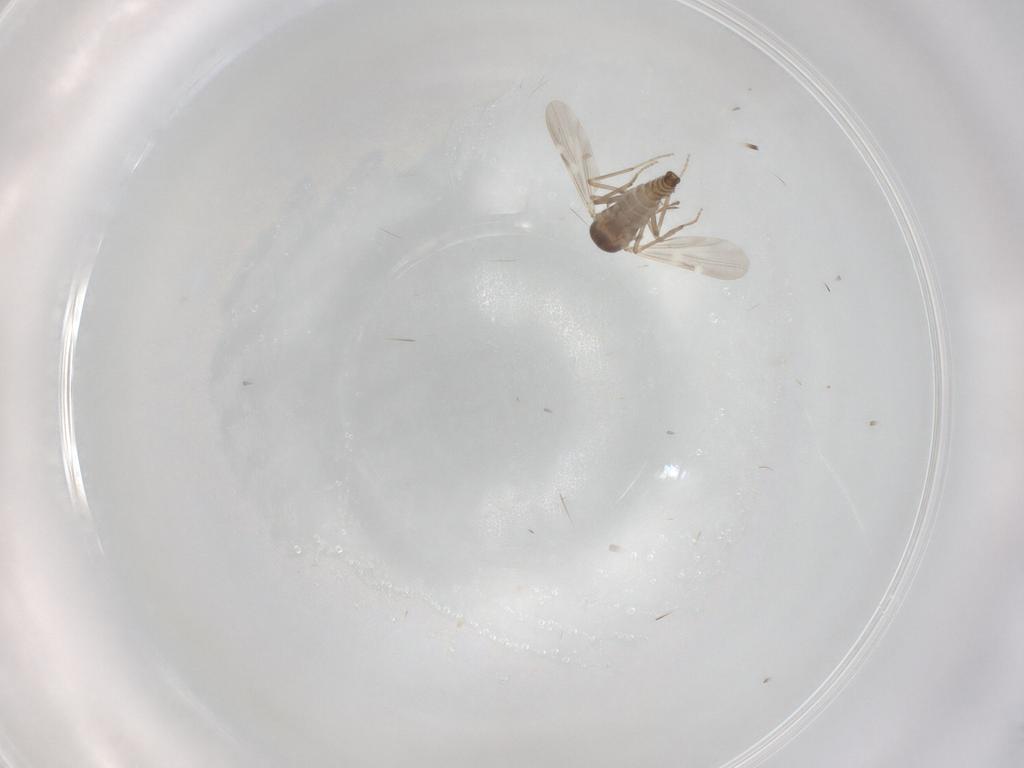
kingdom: Animalia
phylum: Arthropoda
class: Insecta
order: Diptera
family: Ceratopogonidae
